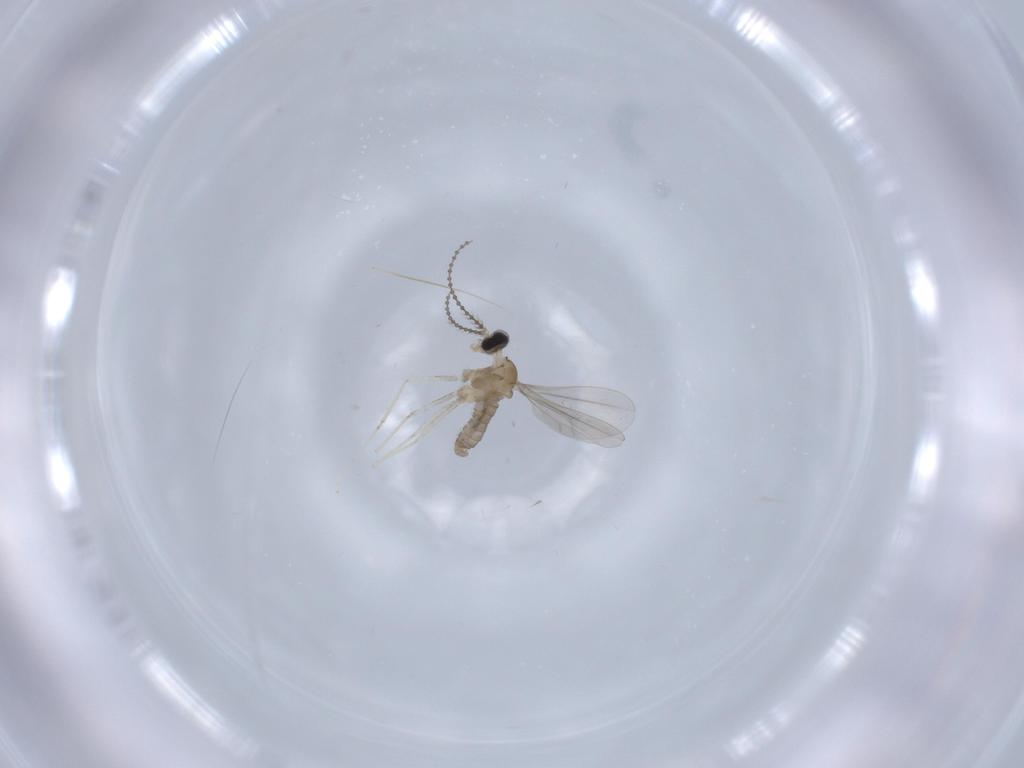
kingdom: Animalia
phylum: Arthropoda
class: Insecta
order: Diptera
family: Cecidomyiidae
